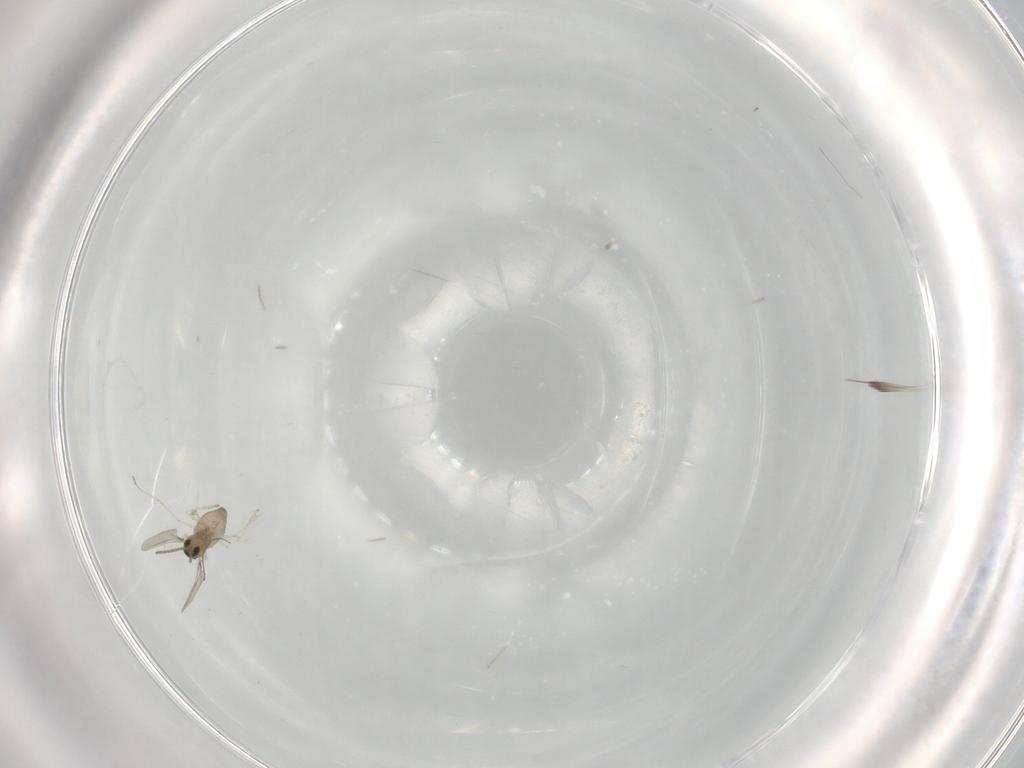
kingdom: Animalia
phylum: Arthropoda
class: Insecta
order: Diptera
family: Cecidomyiidae
